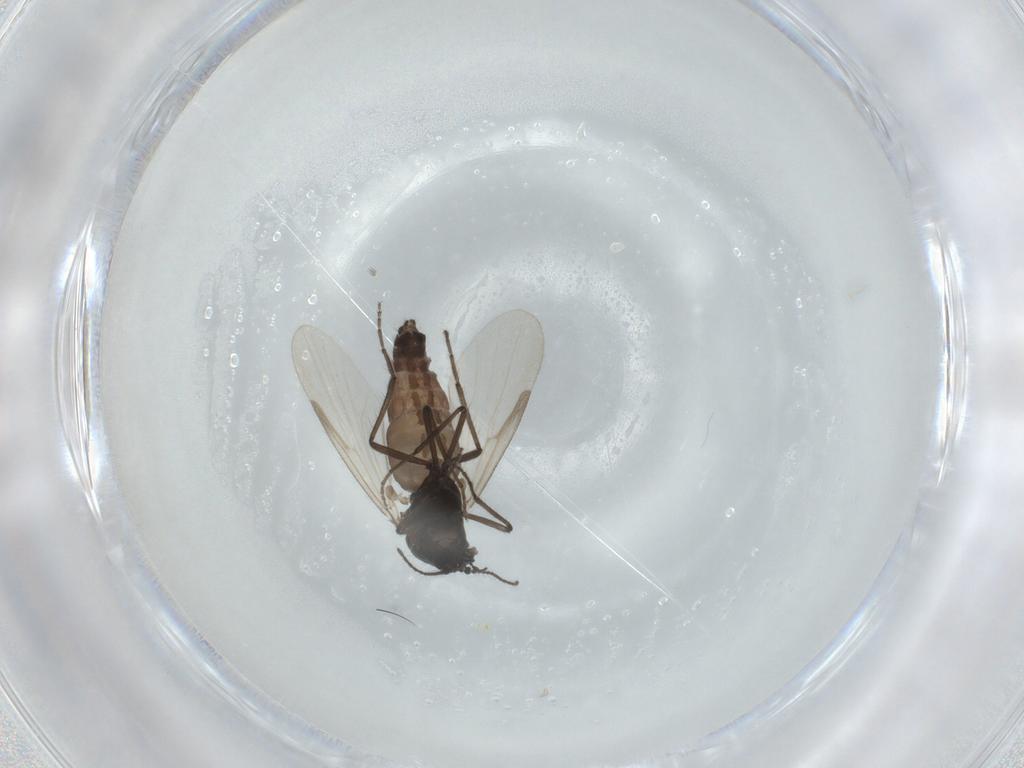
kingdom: Animalia
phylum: Arthropoda
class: Insecta
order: Diptera
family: Ceratopogonidae
